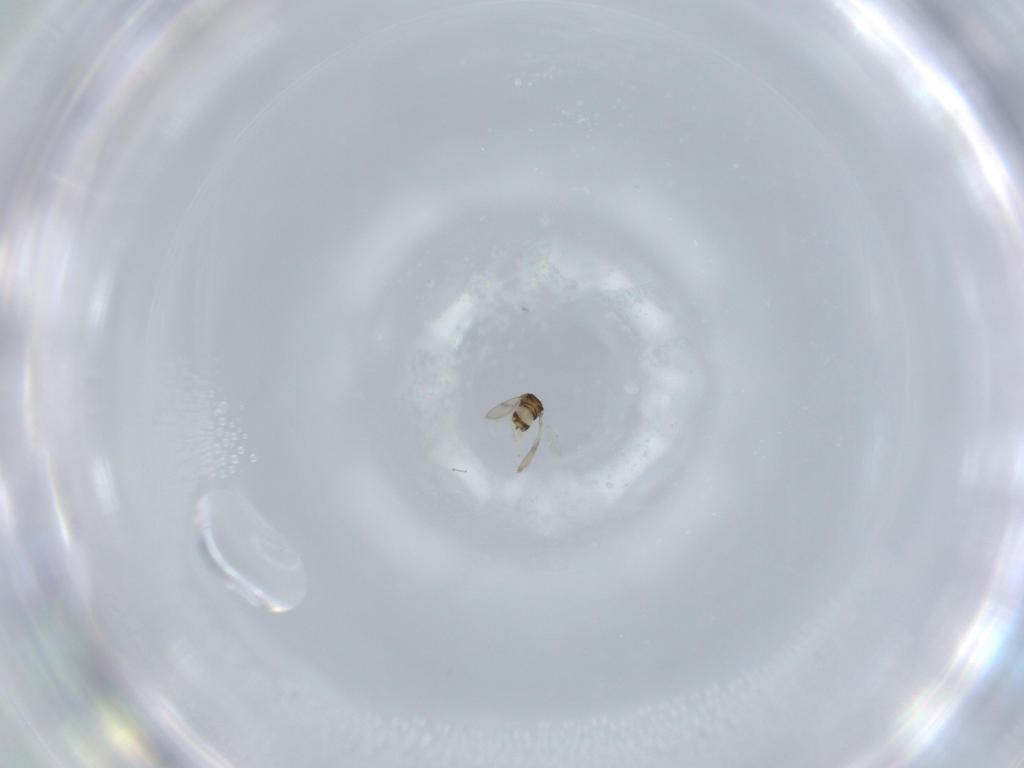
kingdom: Animalia
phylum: Arthropoda
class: Insecta
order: Hymenoptera
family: Aphelinidae
